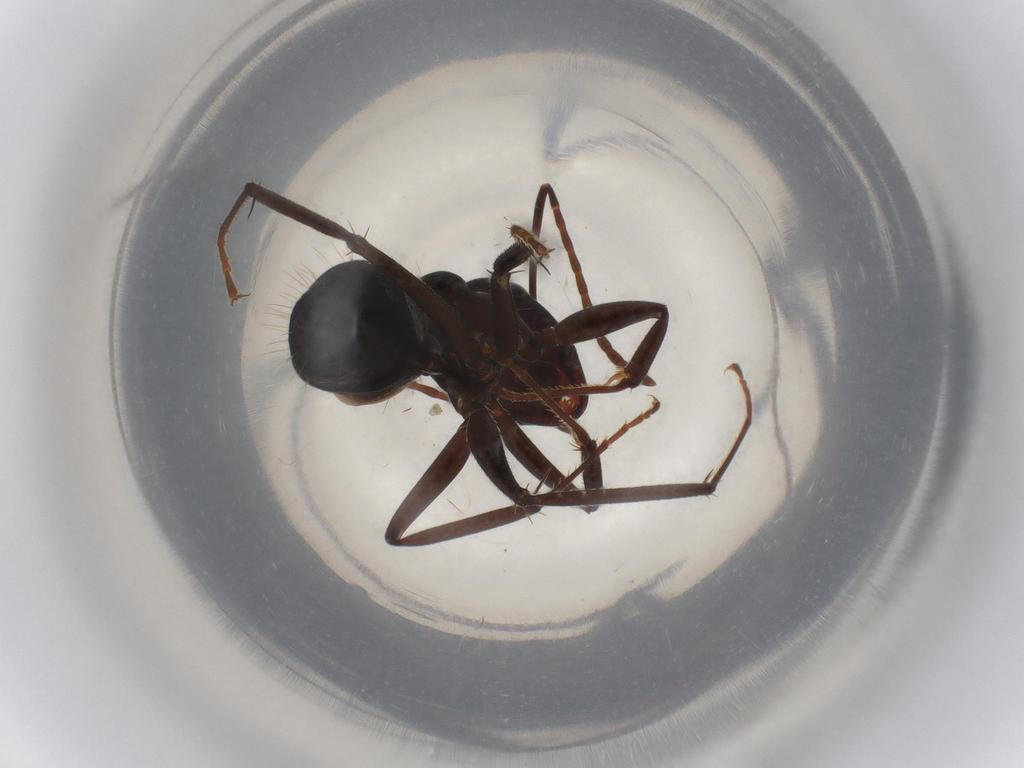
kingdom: Animalia
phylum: Arthropoda
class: Insecta
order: Hymenoptera
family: Formicidae
